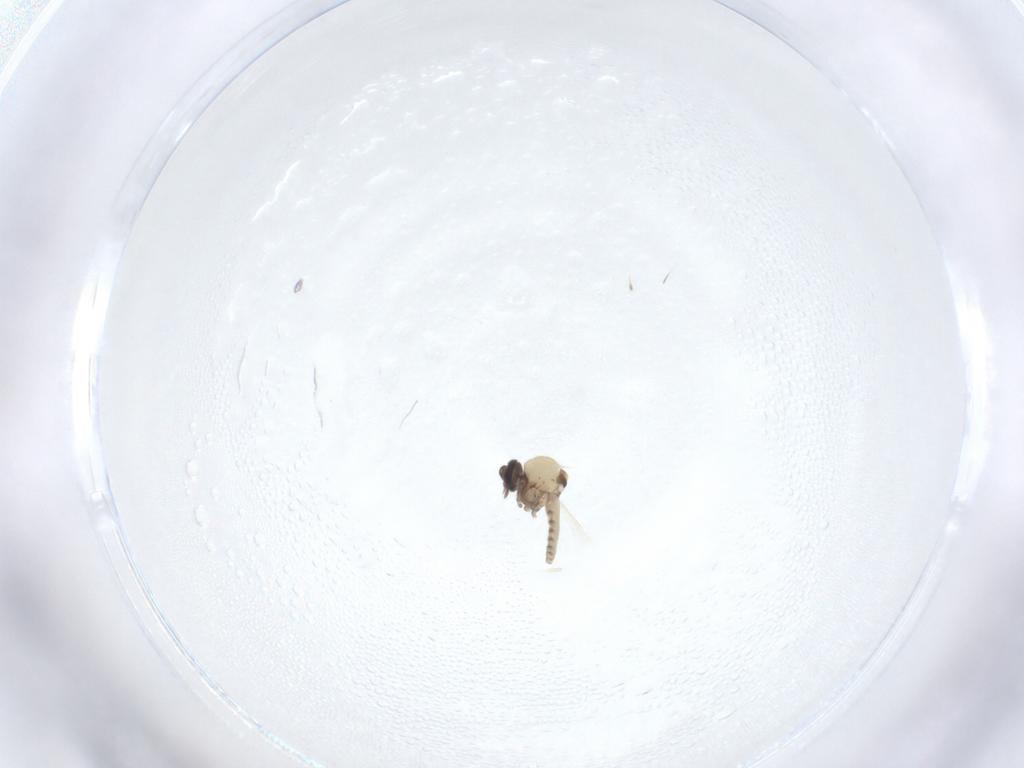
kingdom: Animalia
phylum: Arthropoda
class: Insecta
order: Diptera
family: Ceratopogonidae
